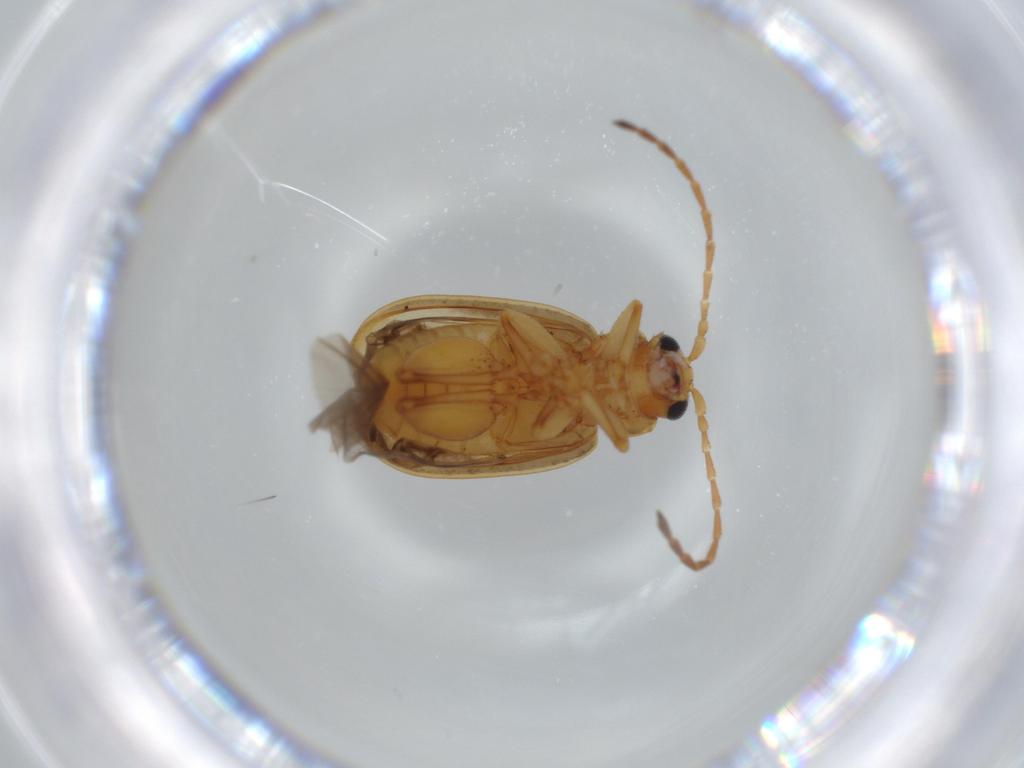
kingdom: Animalia
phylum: Arthropoda
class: Insecta
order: Coleoptera
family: Chrysomelidae
